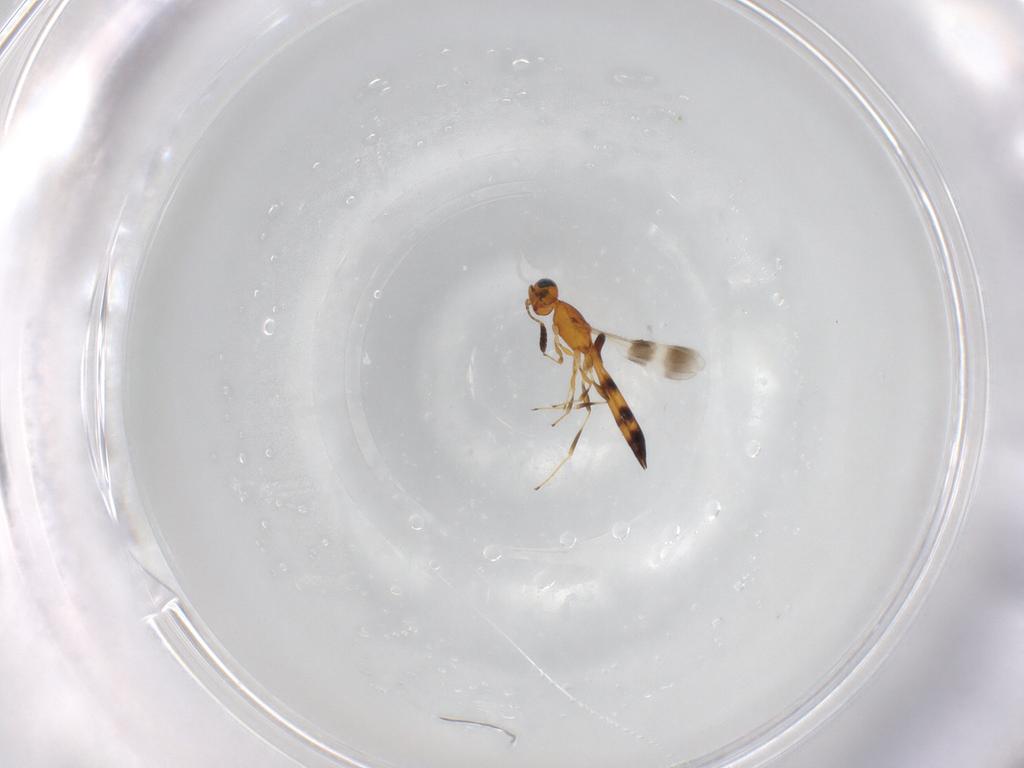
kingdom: Animalia
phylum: Arthropoda
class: Insecta
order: Hymenoptera
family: Scelionidae
